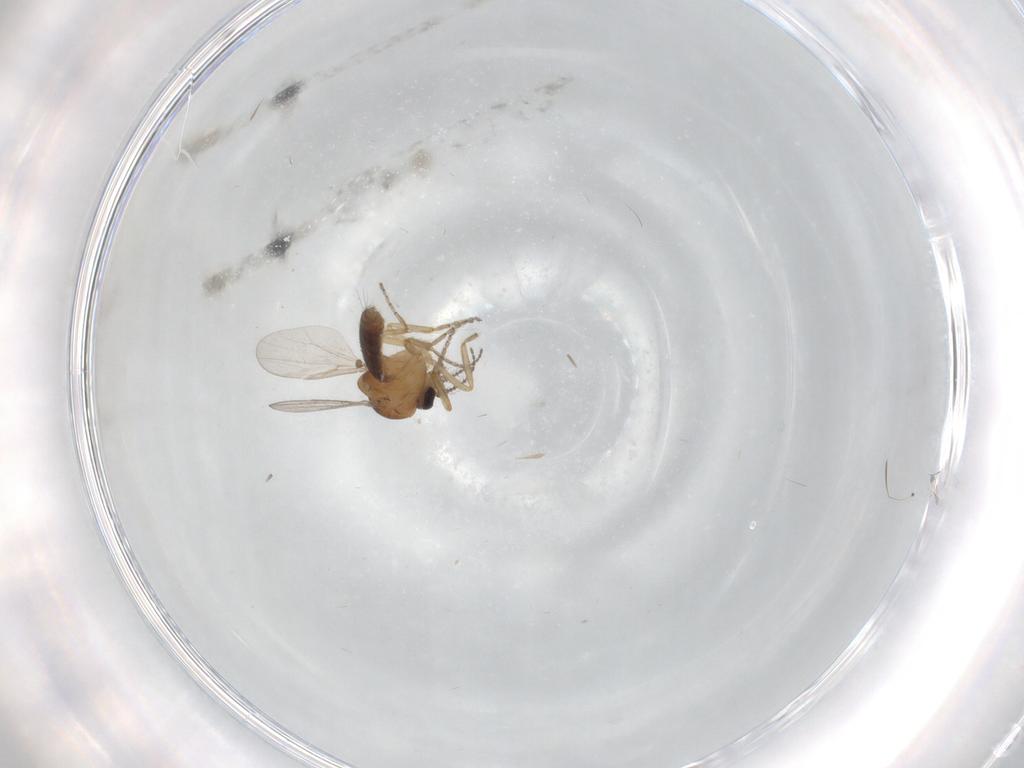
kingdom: Animalia
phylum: Arthropoda
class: Insecta
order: Diptera
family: Ceratopogonidae
